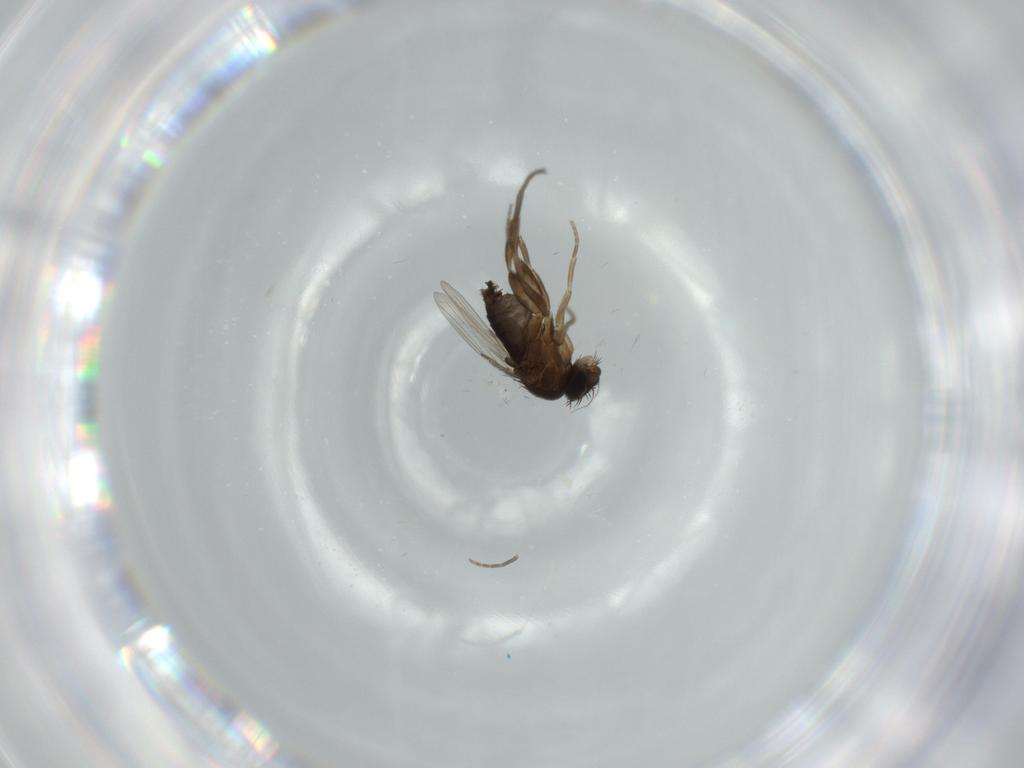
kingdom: Animalia
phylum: Arthropoda
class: Insecta
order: Diptera
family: Phoridae
